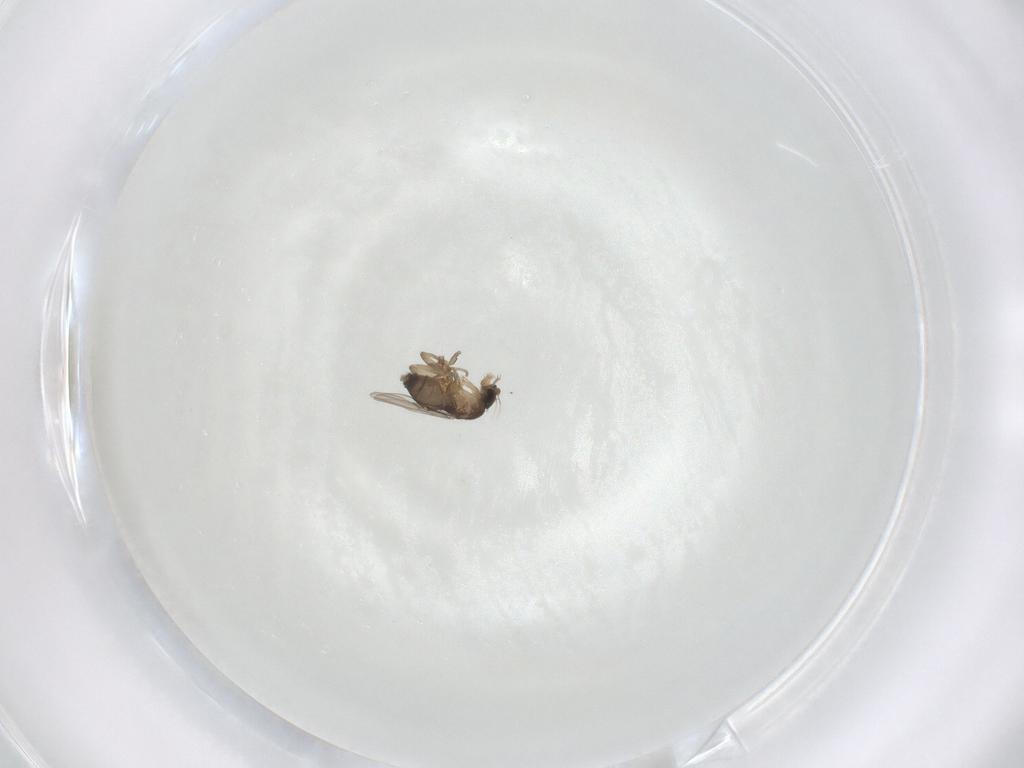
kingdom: Animalia
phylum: Arthropoda
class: Insecta
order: Diptera
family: Phoridae
